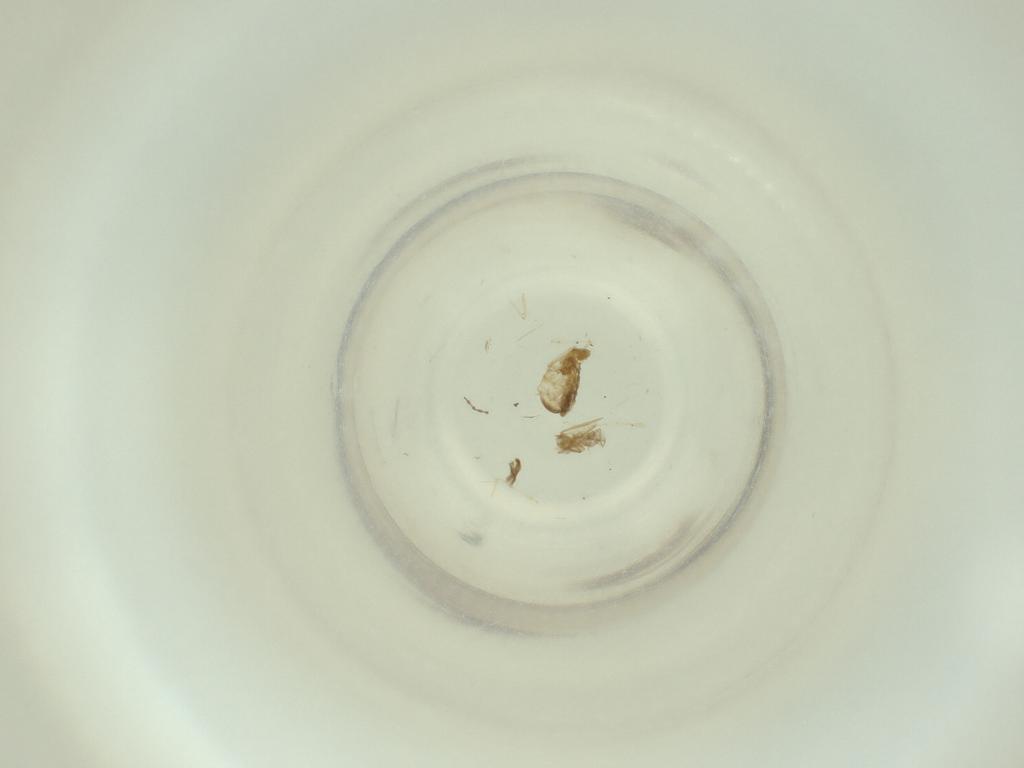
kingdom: Animalia
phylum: Arthropoda
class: Insecta
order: Diptera
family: Cecidomyiidae
